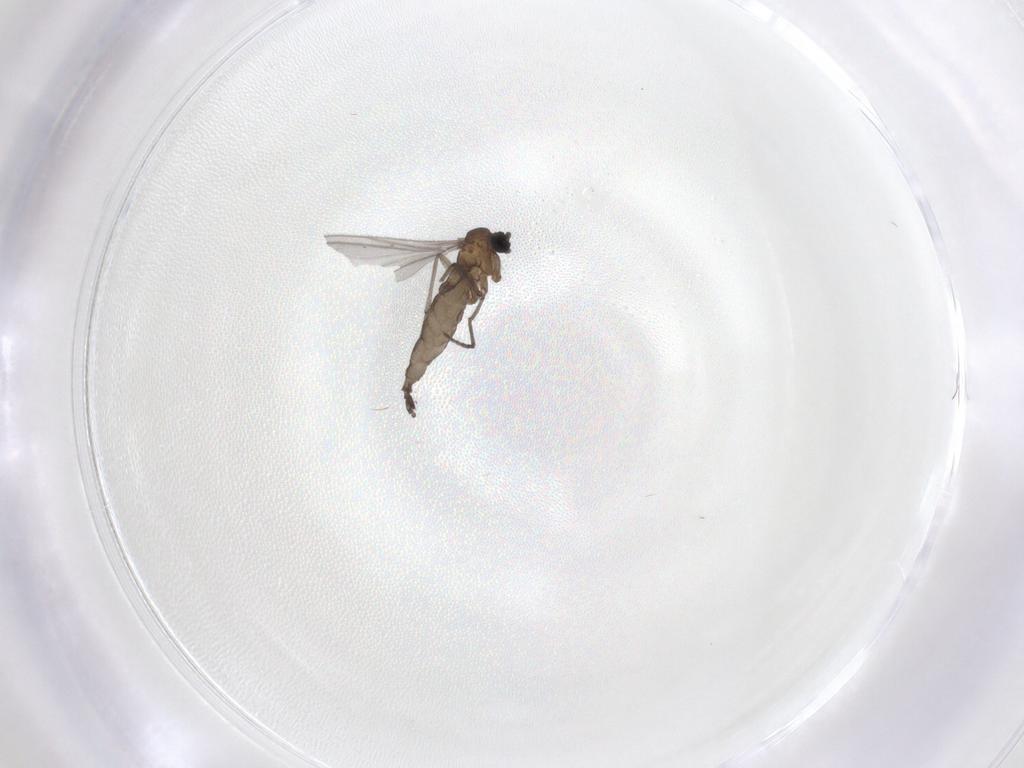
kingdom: Animalia
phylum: Arthropoda
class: Insecta
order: Diptera
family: Sciaridae
